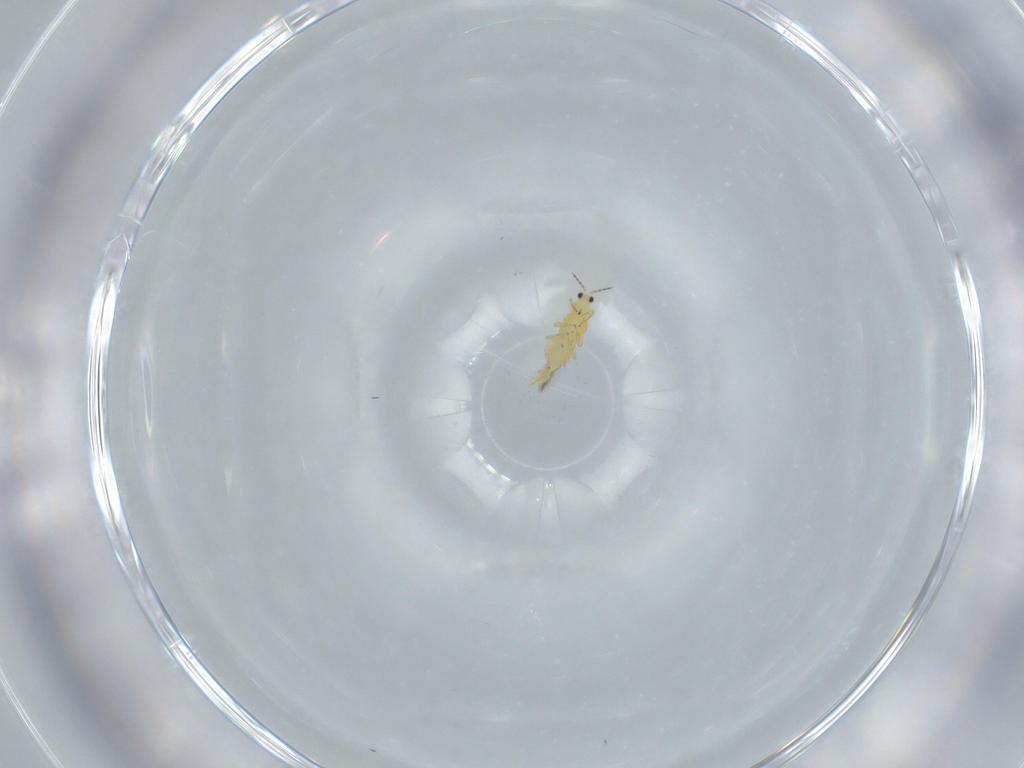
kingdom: Animalia
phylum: Arthropoda
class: Insecta
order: Thysanoptera
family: Thripidae
